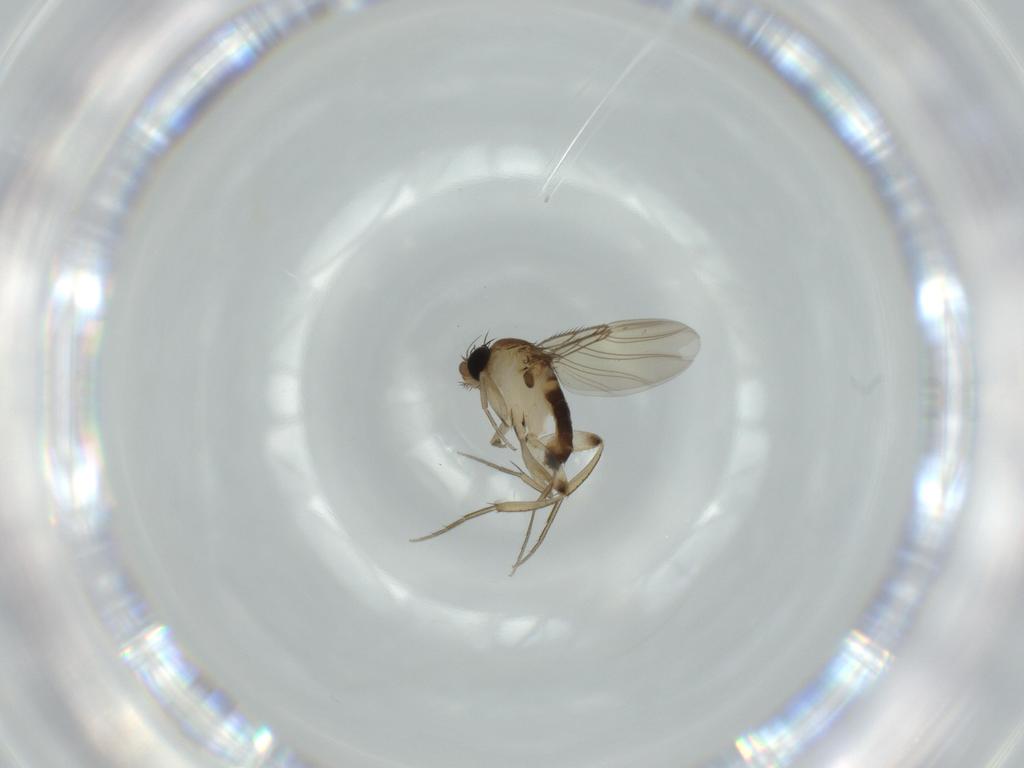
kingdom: Animalia
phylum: Arthropoda
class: Insecta
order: Diptera
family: Phoridae
